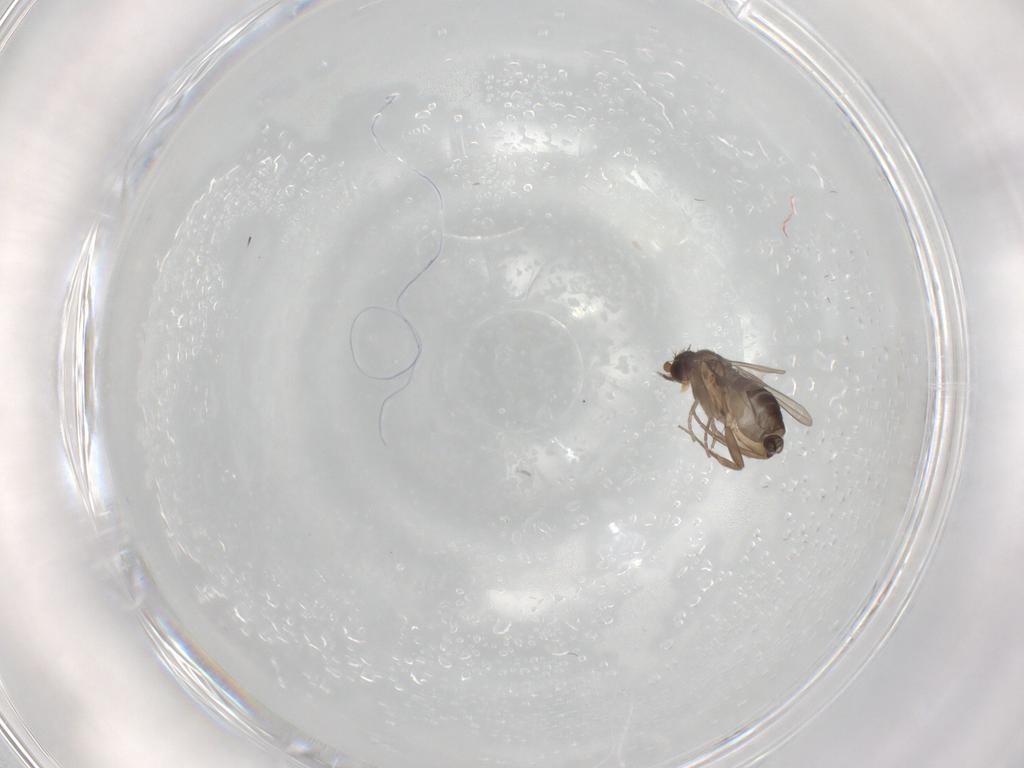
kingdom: Animalia
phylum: Arthropoda
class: Insecta
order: Diptera
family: Phoridae
